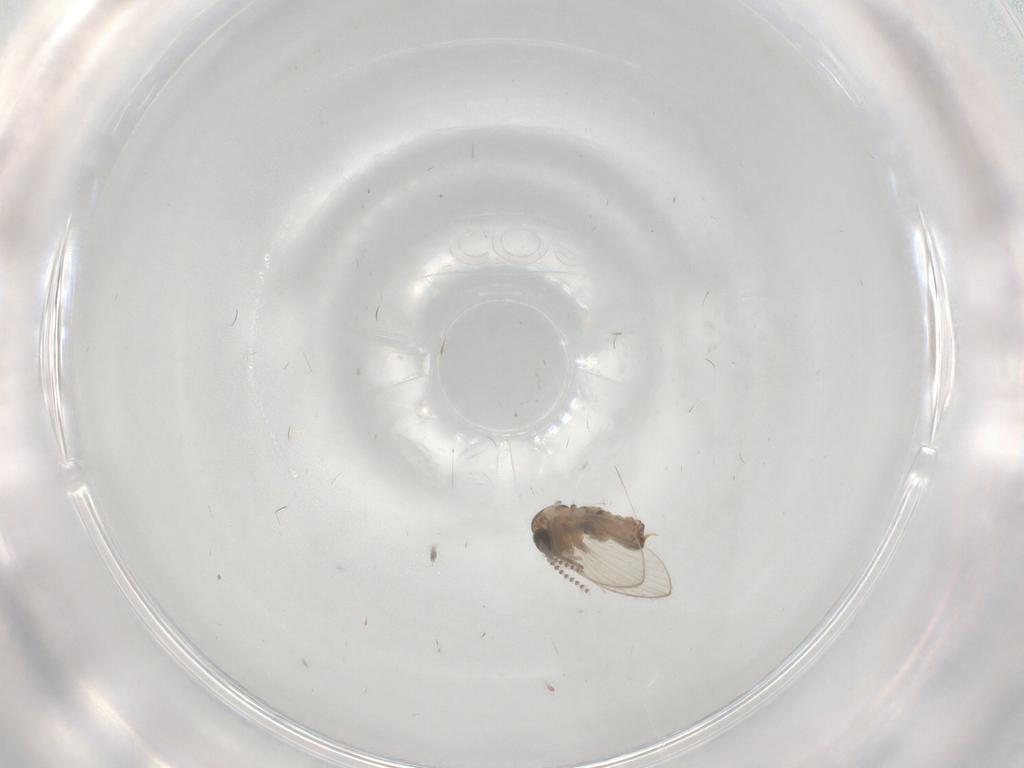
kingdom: Animalia
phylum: Arthropoda
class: Insecta
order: Diptera
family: Psychodidae
